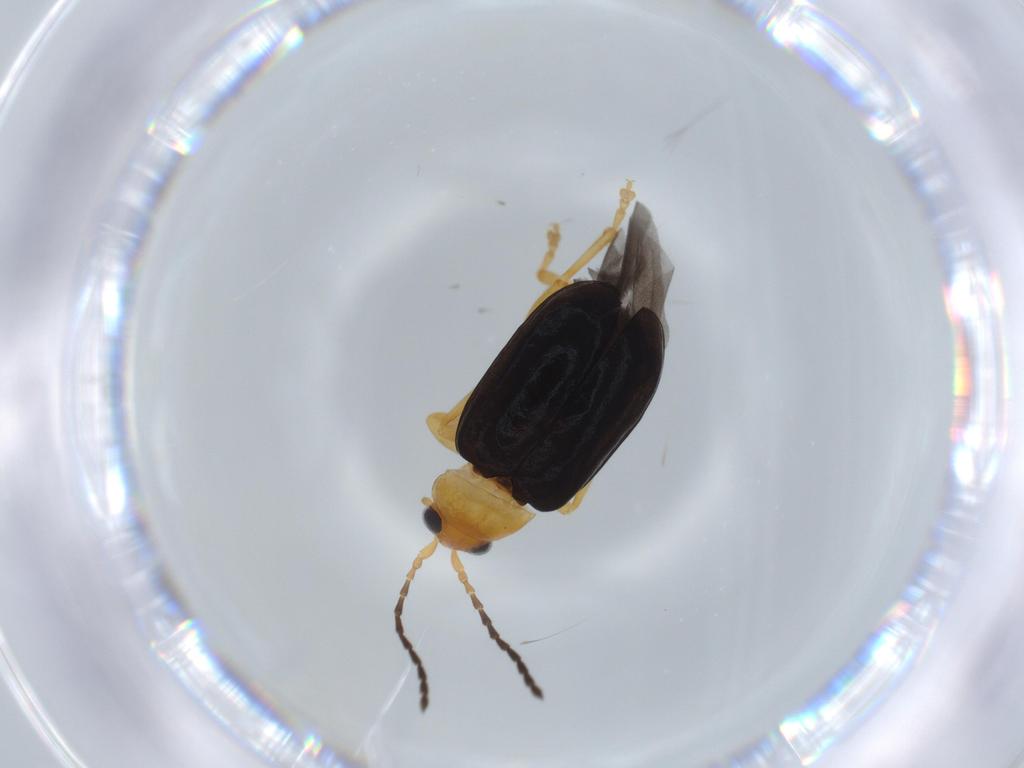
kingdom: Animalia
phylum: Arthropoda
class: Insecta
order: Coleoptera
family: Chrysomelidae
